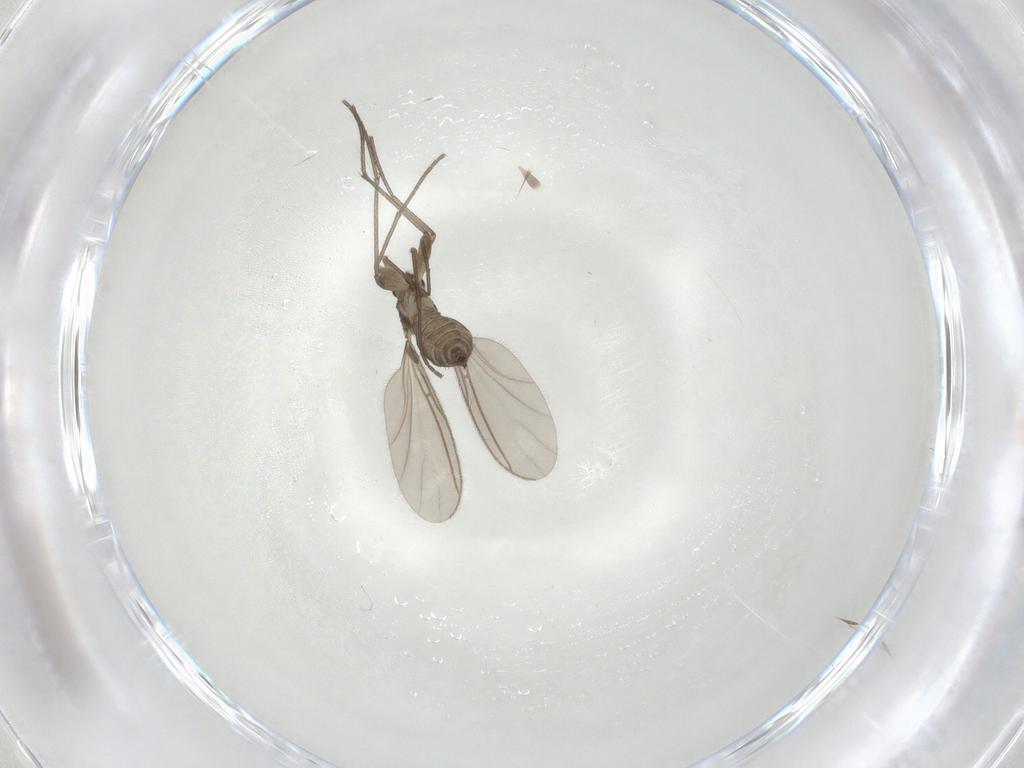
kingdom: Animalia
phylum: Arthropoda
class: Insecta
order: Diptera
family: Sciaridae
